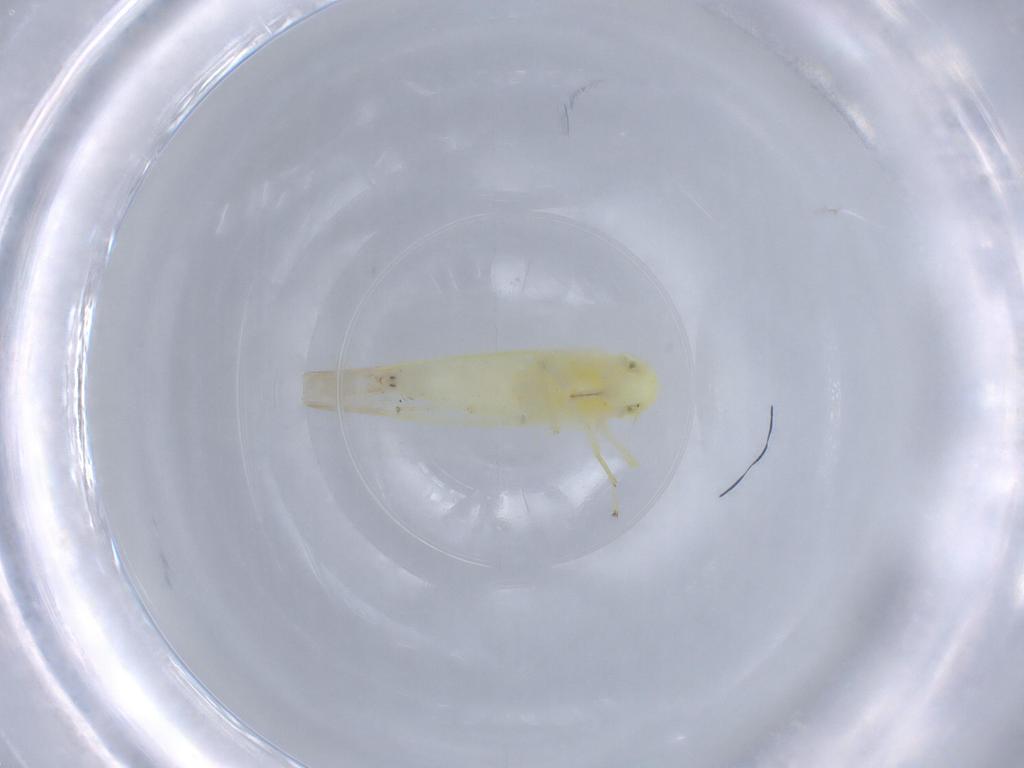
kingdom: Animalia
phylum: Arthropoda
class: Insecta
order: Hemiptera
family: Cicadellidae
